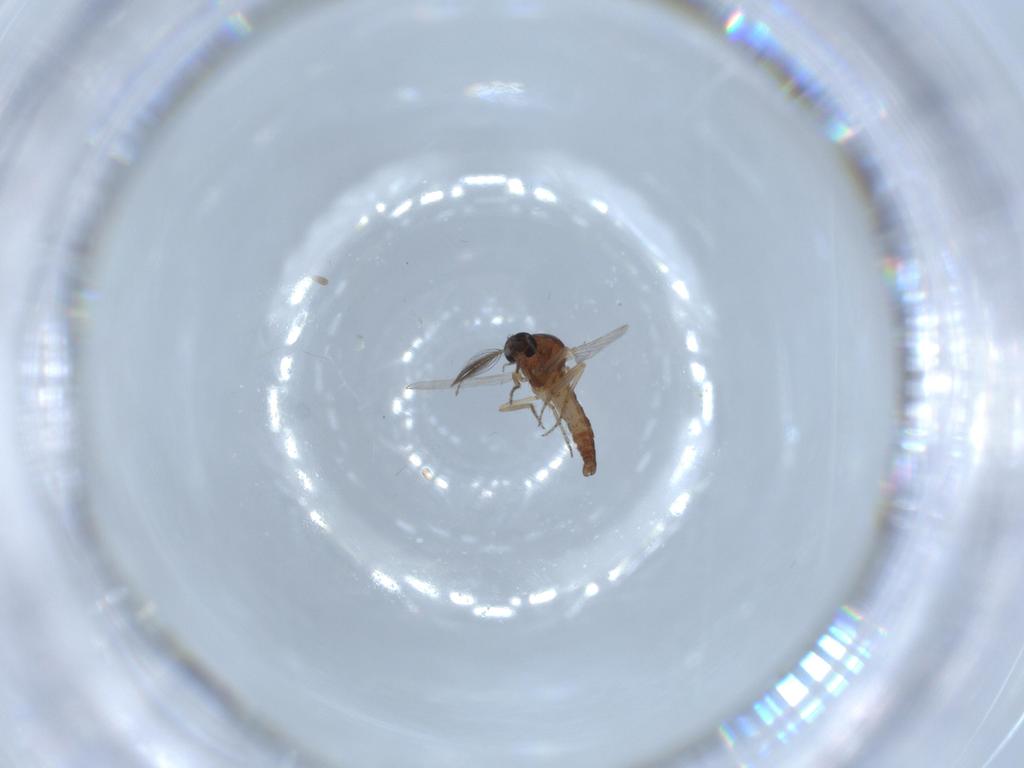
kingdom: Animalia
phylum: Arthropoda
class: Insecta
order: Diptera
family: Ceratopogonidae
